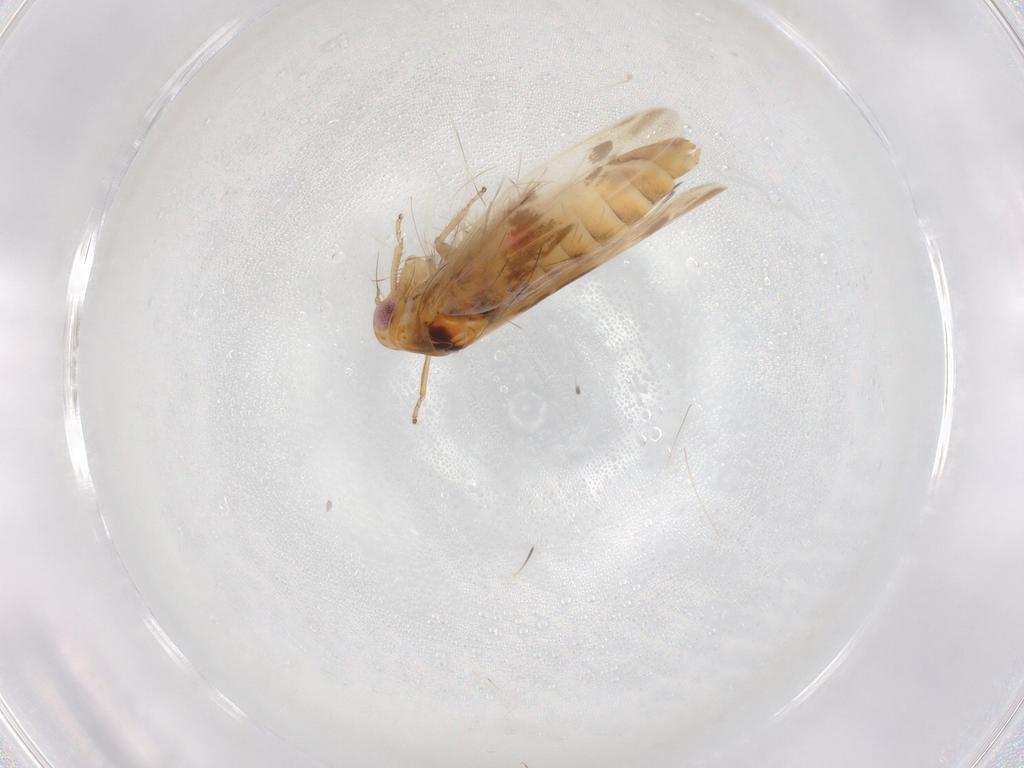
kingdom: Animalia
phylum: Arthropoda
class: Insecta
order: Hemiptera
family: Cicadellidae
